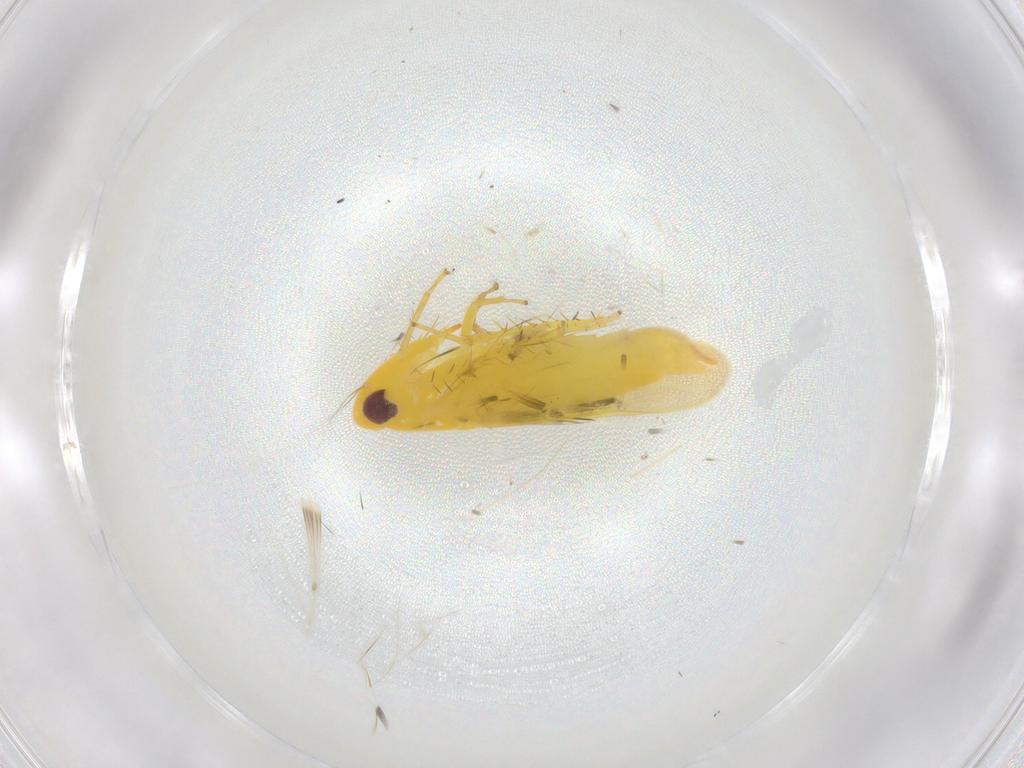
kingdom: Animalia
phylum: Arthropoda
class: Insecta
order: Hemiptera
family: Cicadellidae
